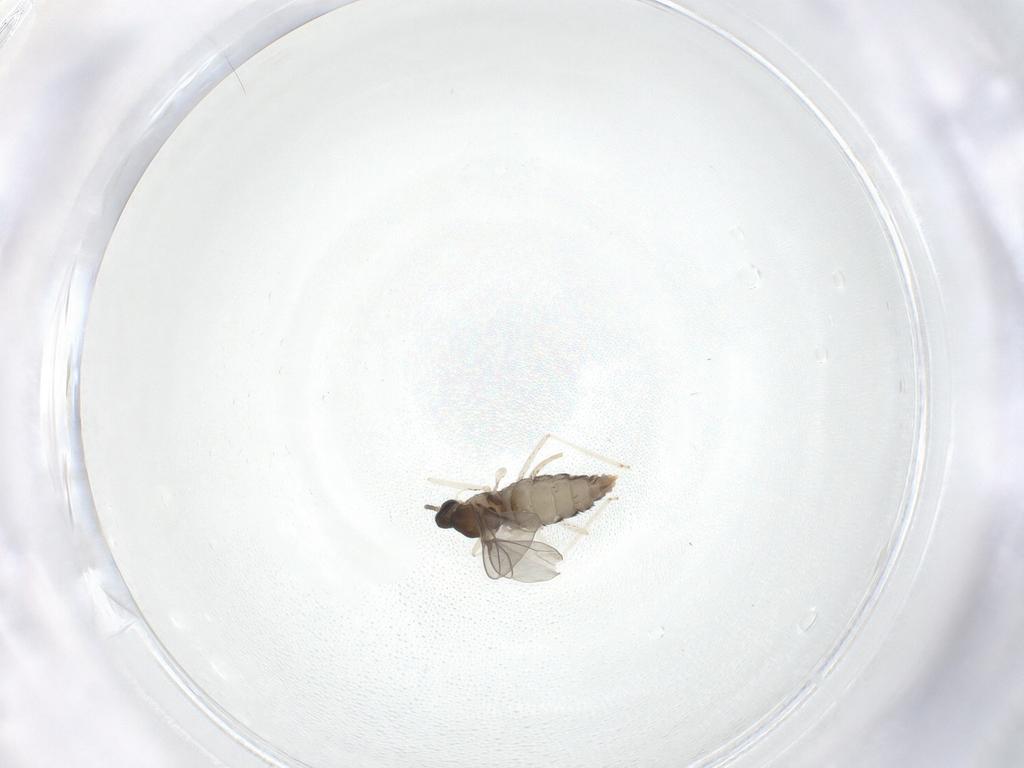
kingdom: Animalia
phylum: Arthropoda
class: Insecta
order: Diptera
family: Cecidomyiidae
